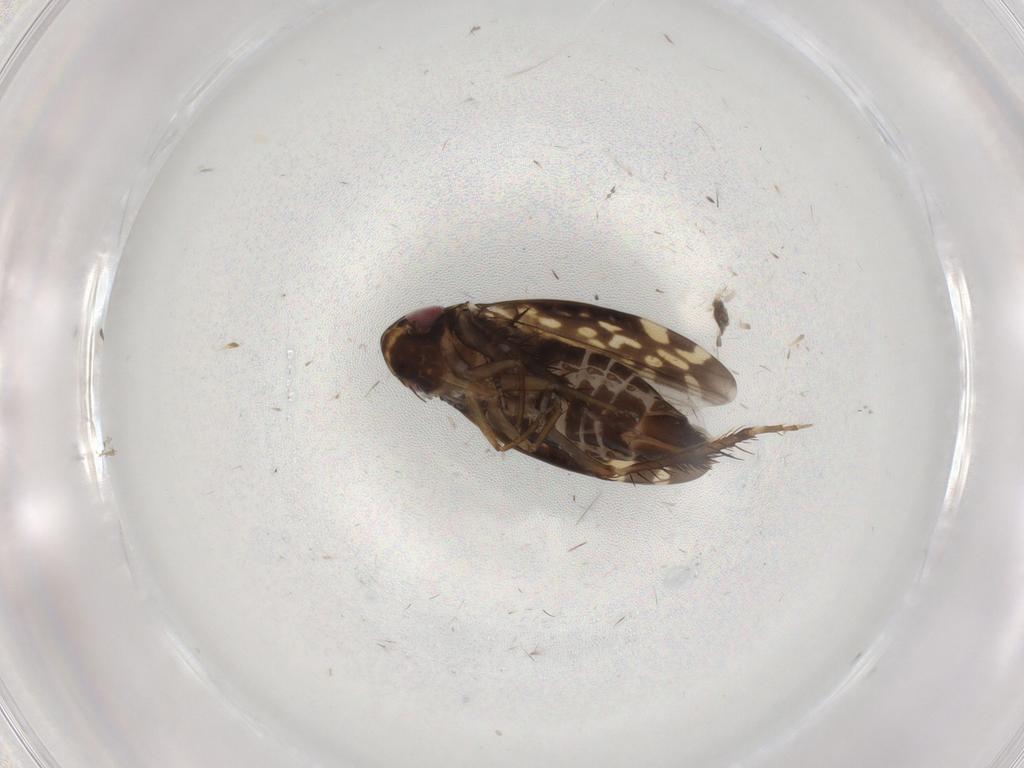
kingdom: Animalia
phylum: Arthropoda
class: Insecta
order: Hemiptera
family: Cicadellidae
